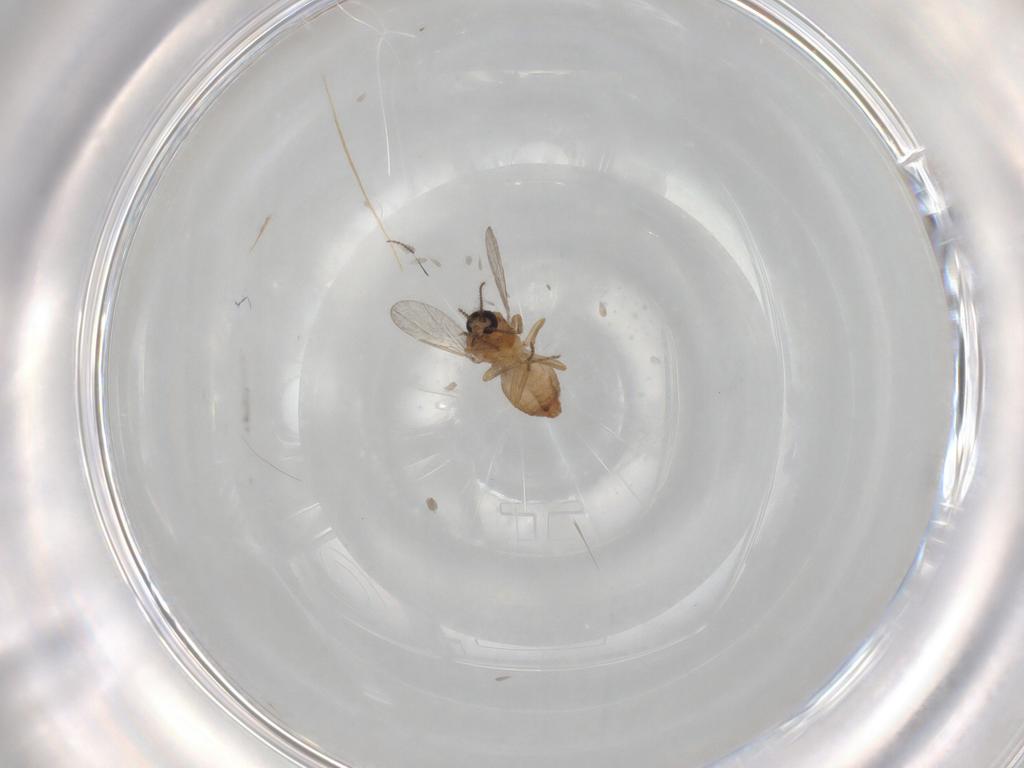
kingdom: Animalia
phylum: Arthropoda
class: Insecta
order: Diptera
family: Ceratopogonidae
